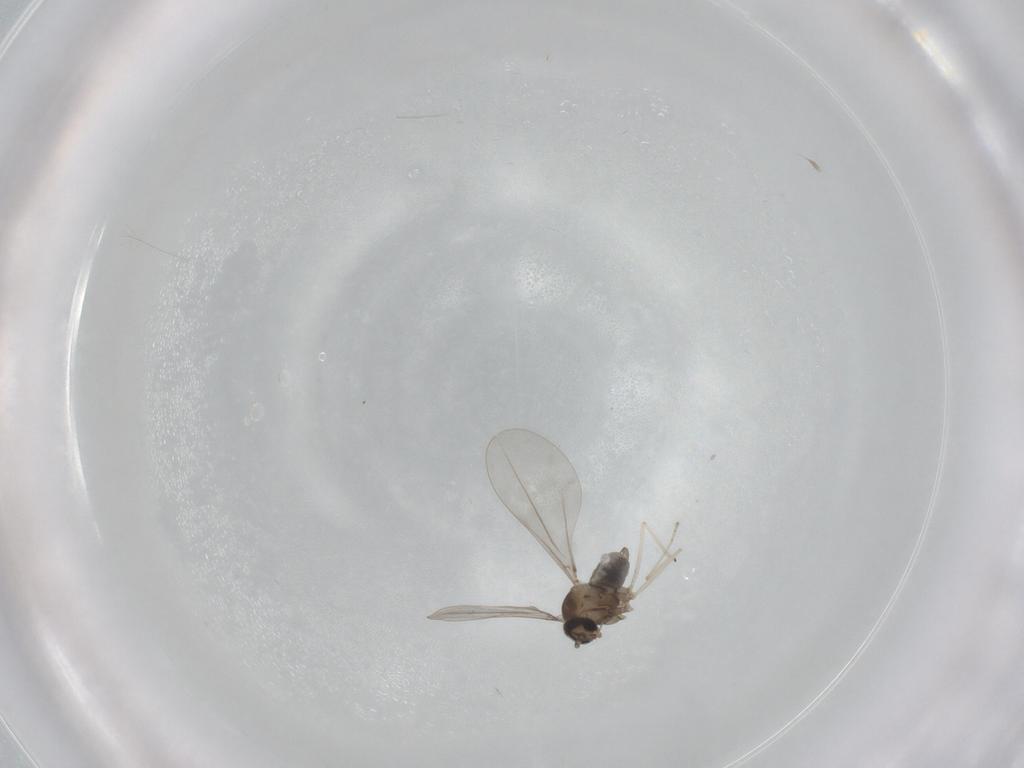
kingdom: Animalia
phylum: Arthropoda
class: Insecta
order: Diptera
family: Cecidomyiidae
